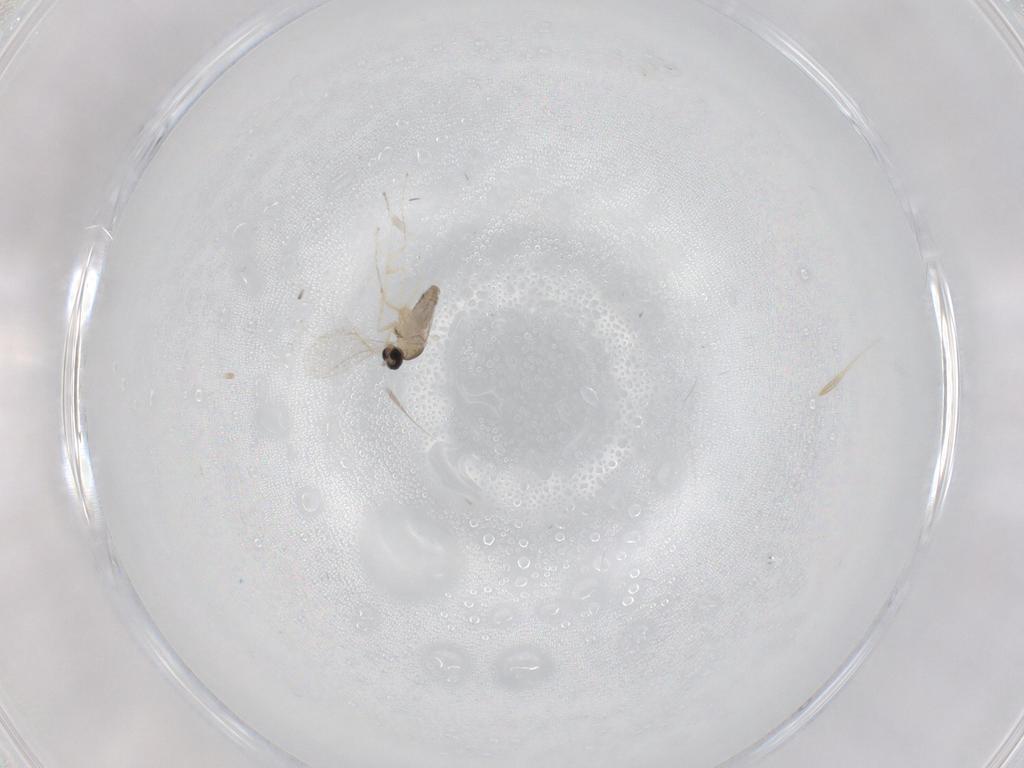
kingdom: Animalia
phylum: Arthropoda
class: Insecta
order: Diptera
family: Cecidomyiidae
